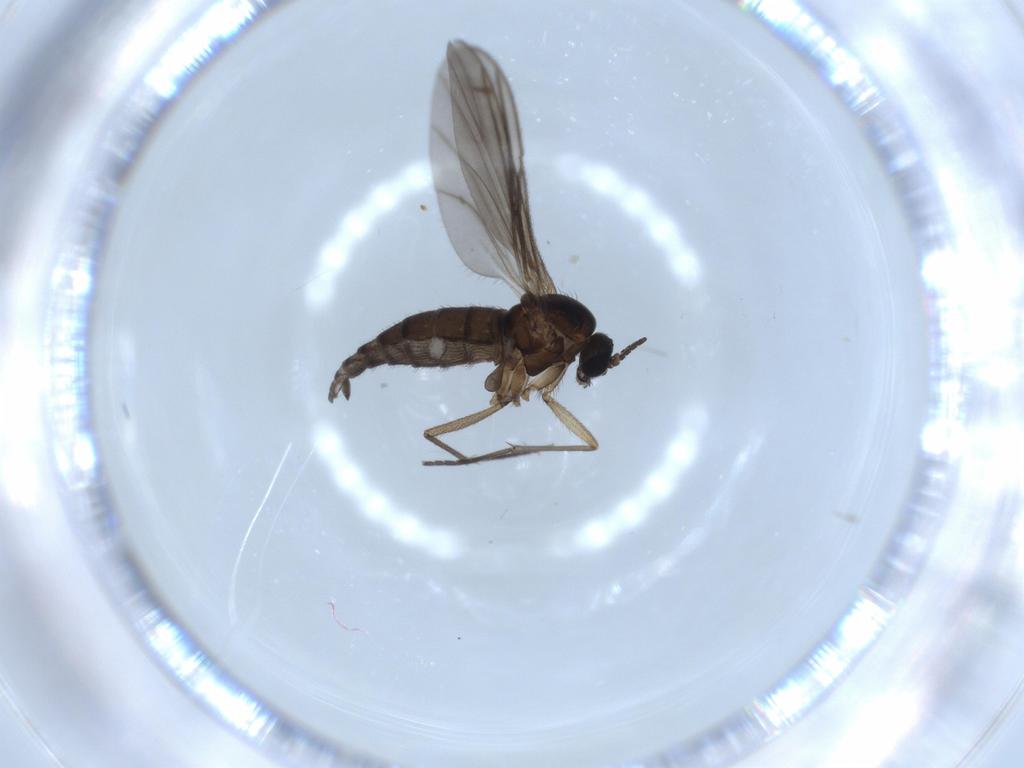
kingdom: Animalia
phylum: Arthropoda
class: Insecta
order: Diptera
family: Sciaridae
